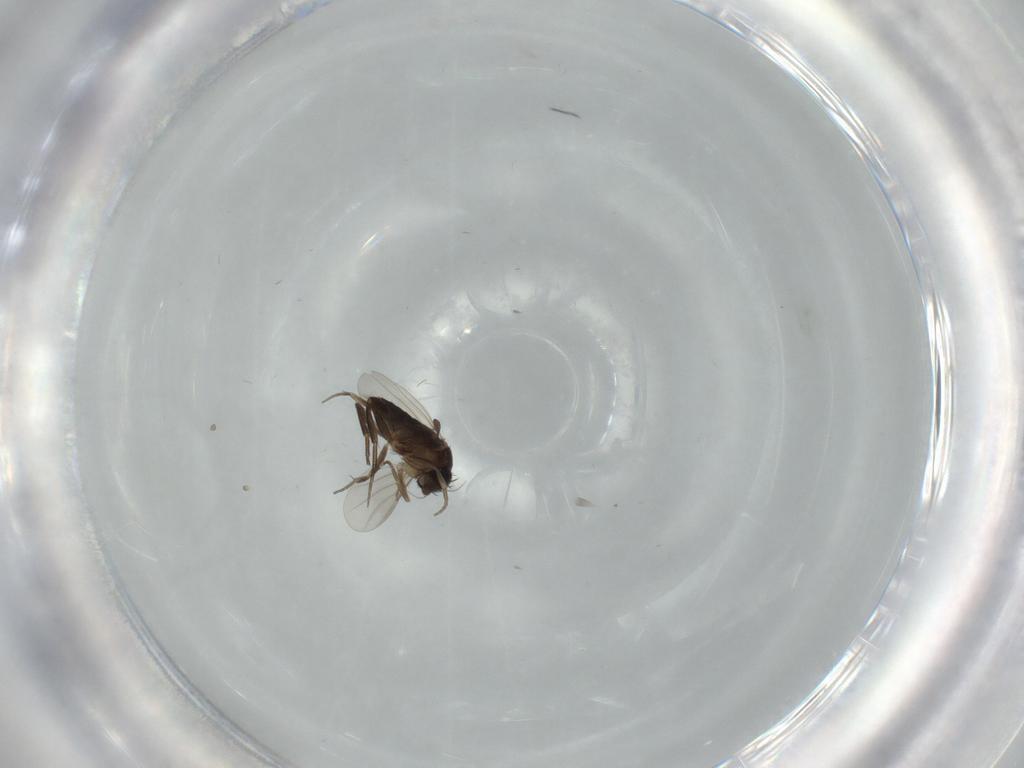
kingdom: Animalia
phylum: Arthropoda
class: Insecta
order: Diptera
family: Phoridae
